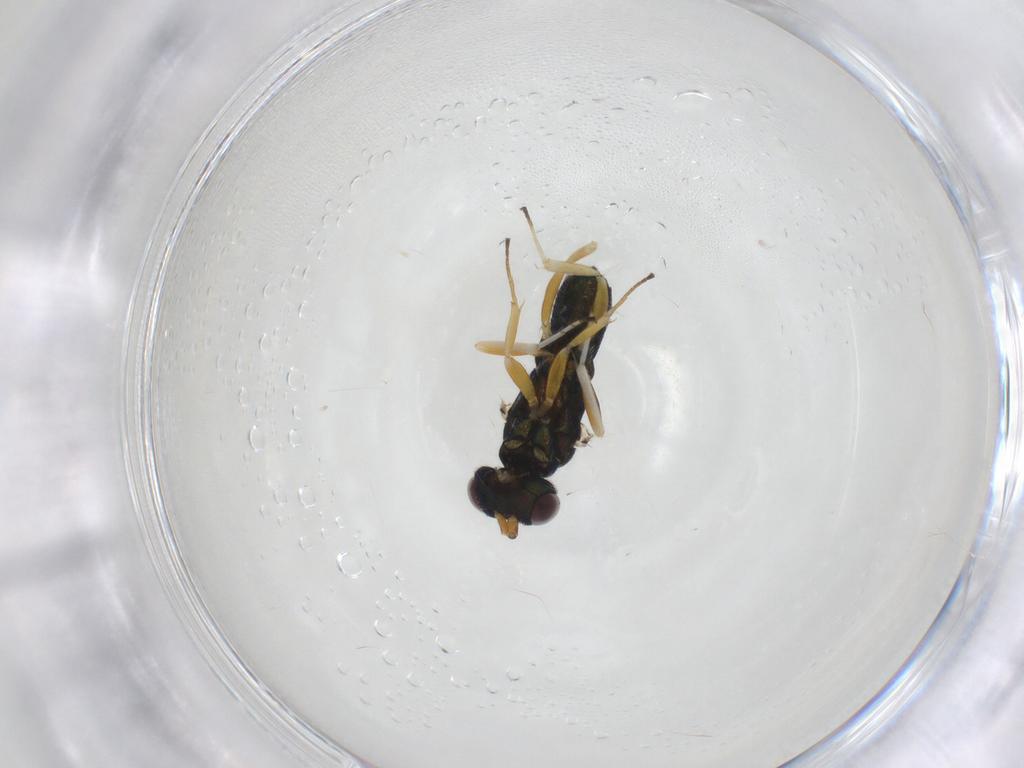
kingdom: Animalia
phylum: Arthropoda
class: Insecta
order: Hymenoptera
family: Eupelmidae
